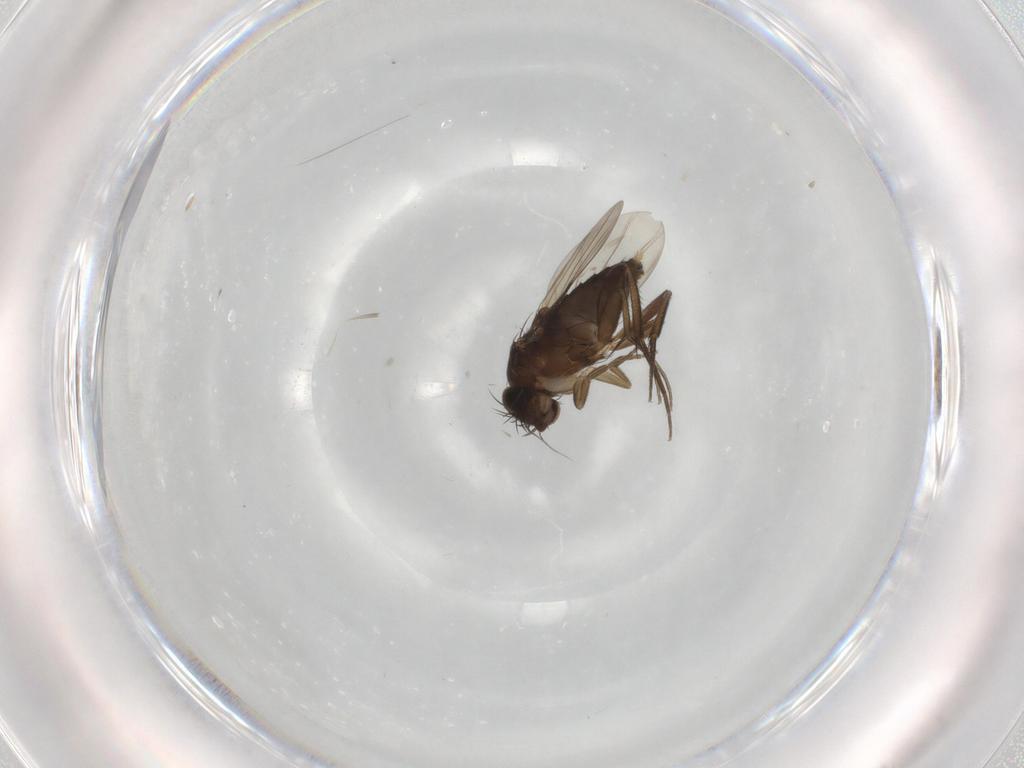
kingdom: Animalia
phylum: Arthropoda
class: Insecta
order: Diptera
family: Phoridae
